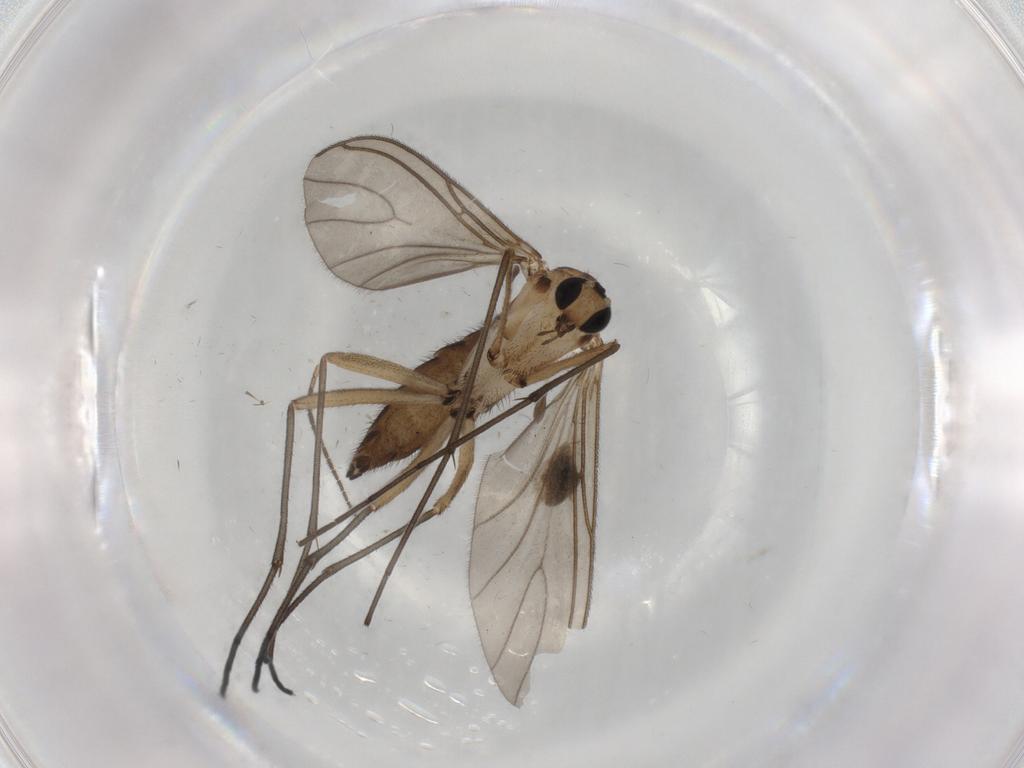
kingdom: Animalia
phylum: Arthropoda
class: Insecta
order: Diptera
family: Sciaridae
